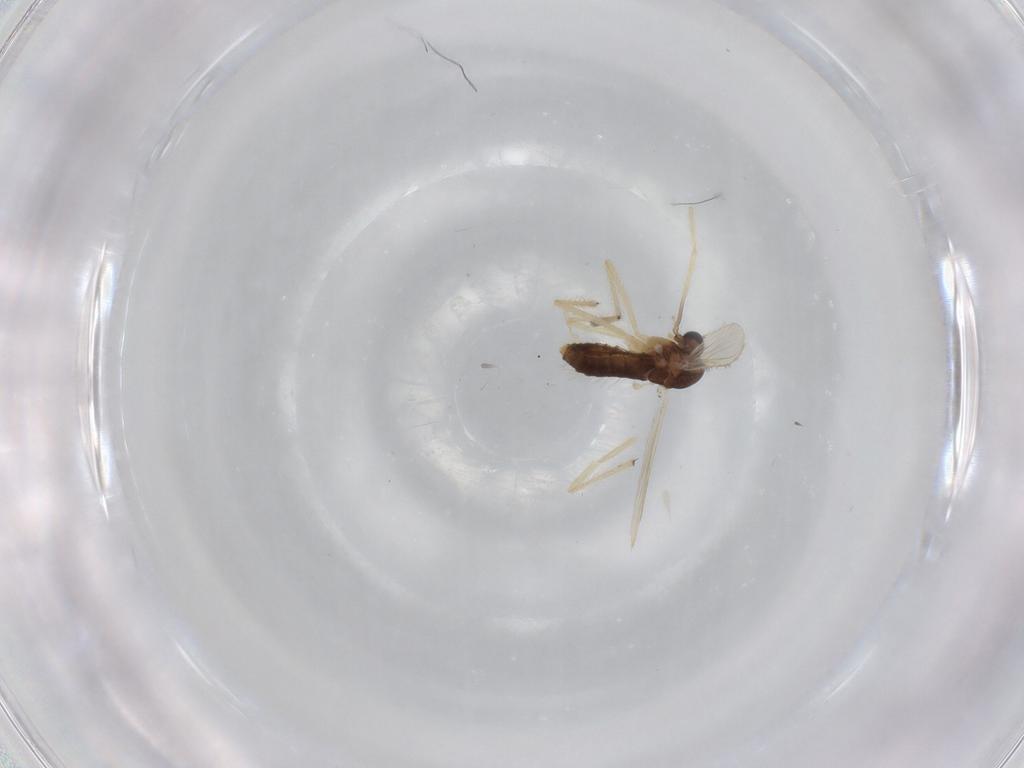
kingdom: Animalia
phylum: Arthropoda
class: Insecta
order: Diptera
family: Chironomidae
